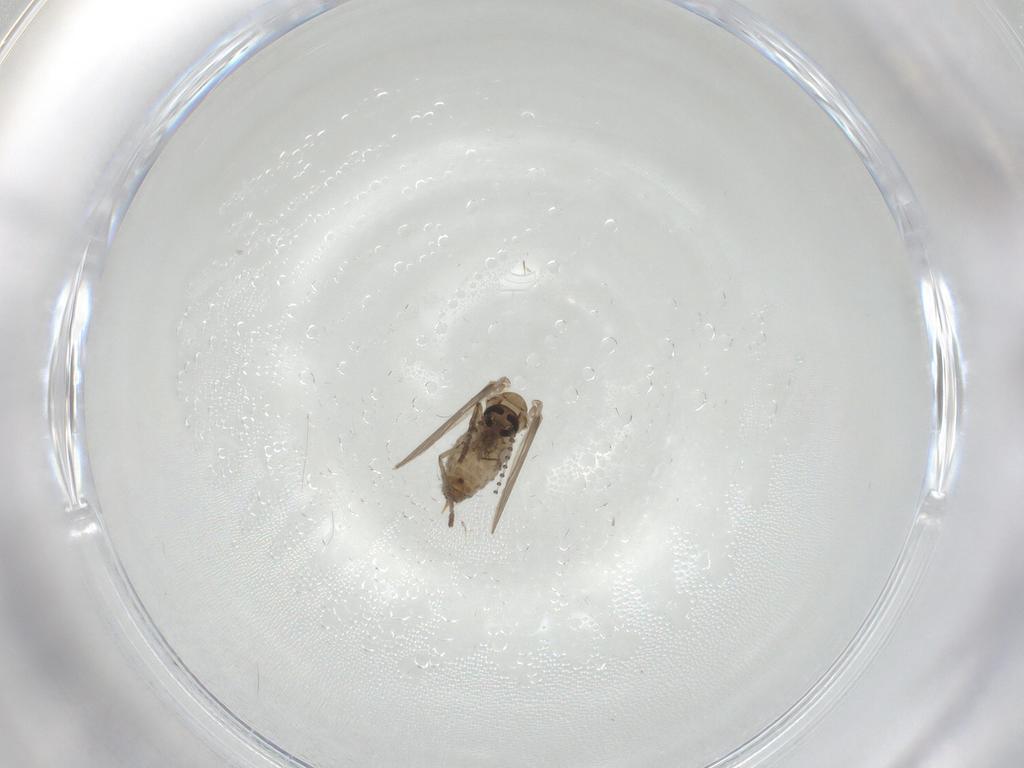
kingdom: Animalia
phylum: Arthropoda
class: Insecta
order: Diptera
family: Psychodidae
